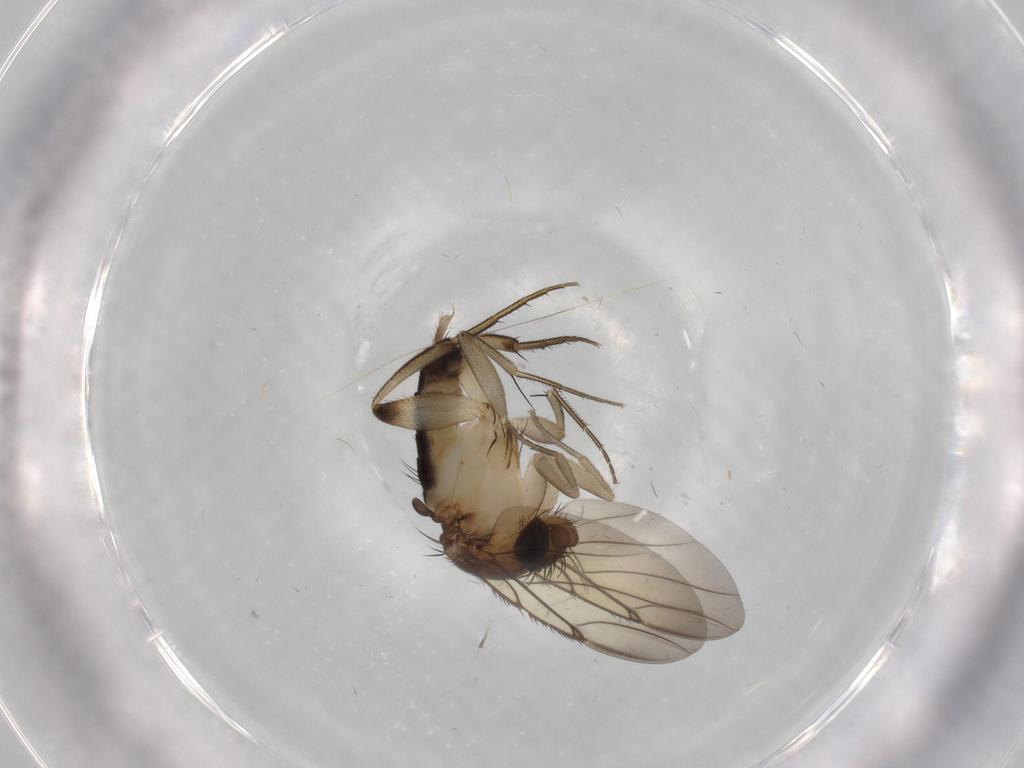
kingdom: Animalia
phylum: Arthropoda
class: Insecta
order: Diptera
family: Phoridae
